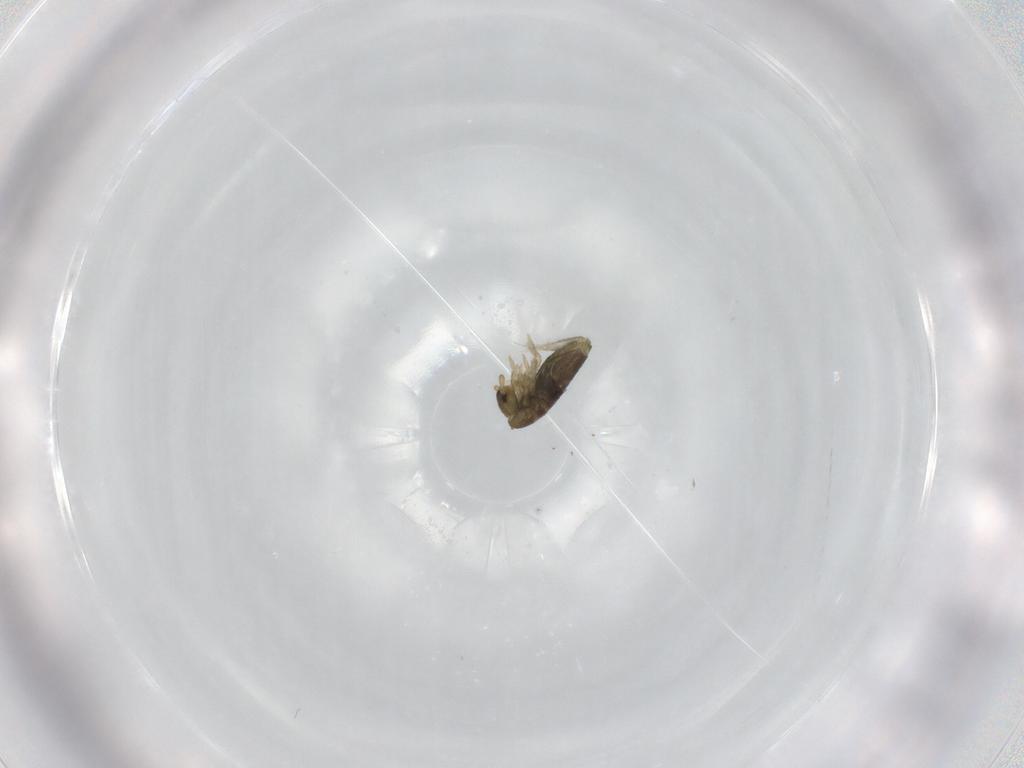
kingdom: Animalia
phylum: Arthropoda
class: Collembola
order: Entomobryomorpha
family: Entomobryidae
